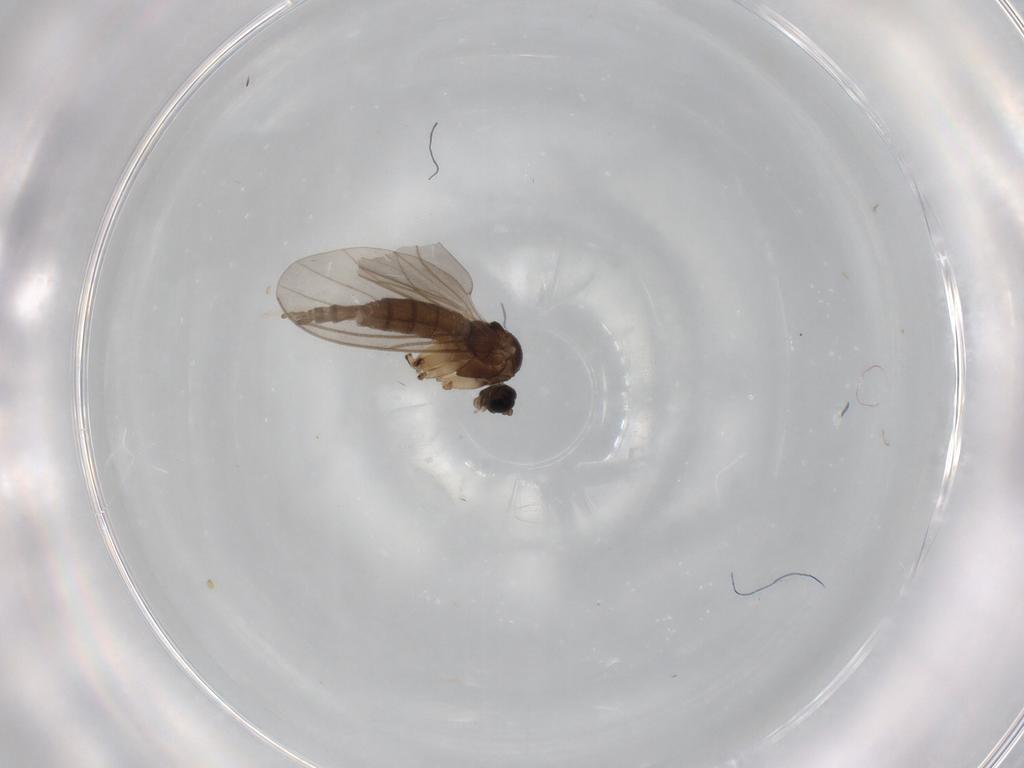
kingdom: Animalia
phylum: Arthropoda
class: Insecta
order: Diptera
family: Sciaridae
